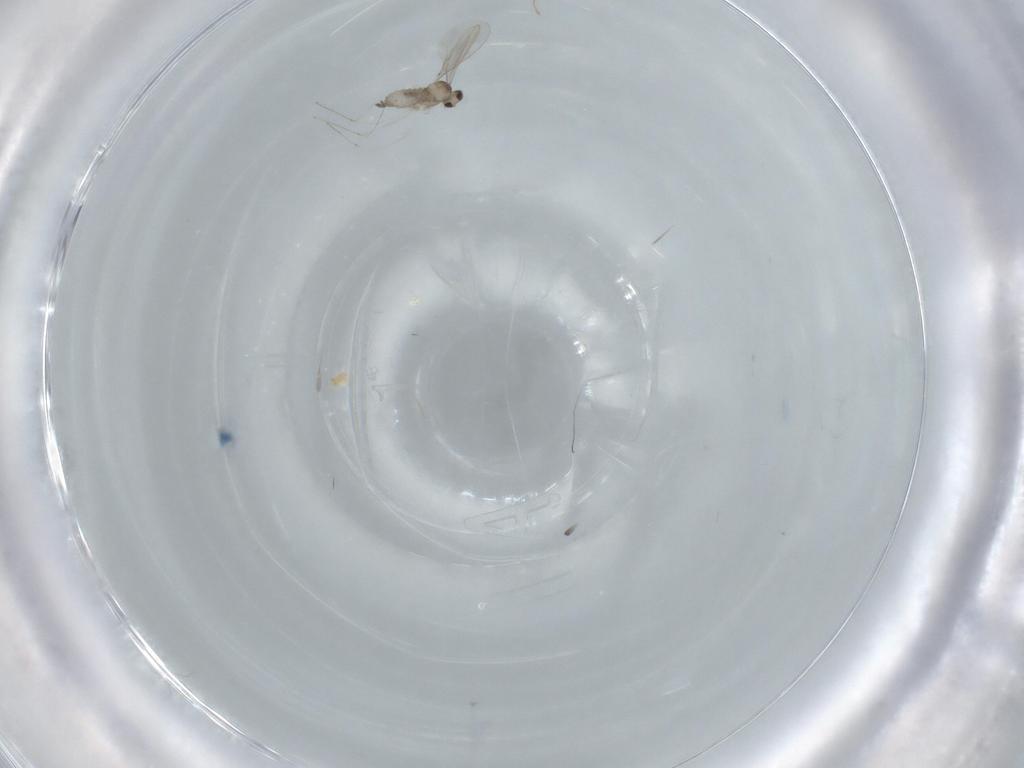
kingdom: Animalia
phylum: Arthropoda
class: Insecta
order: Diptera
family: Cecidomyiidae
